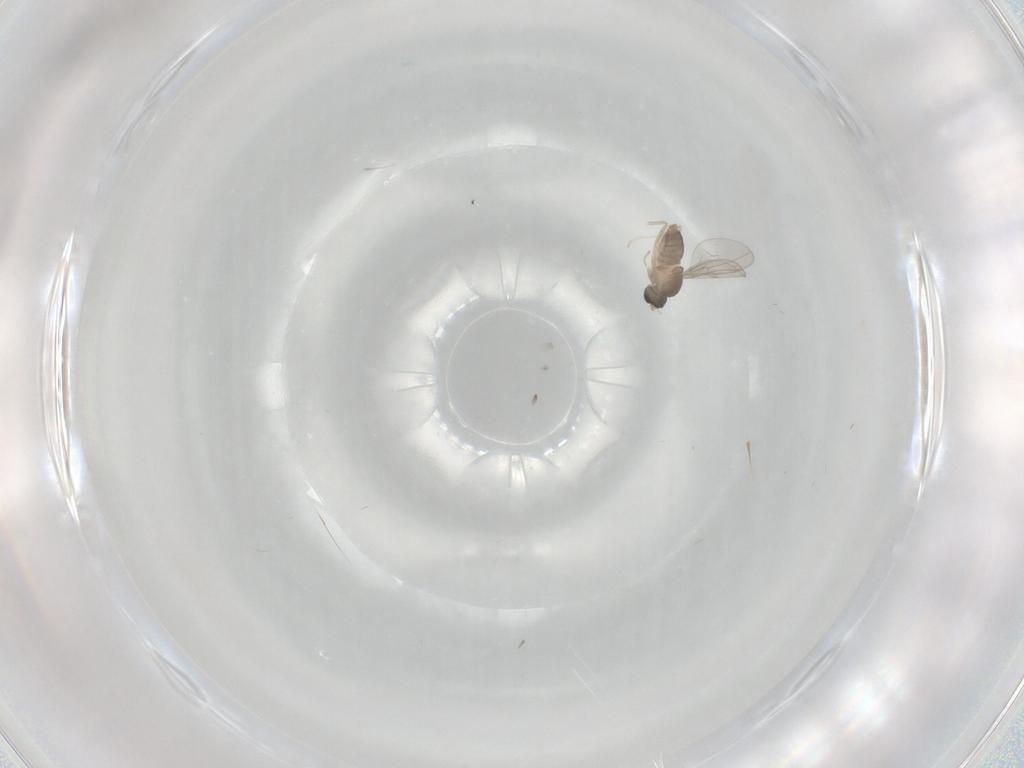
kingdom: Animalia
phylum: Arthropoda
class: Insecta
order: Diptera
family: Cecidomyiidae
